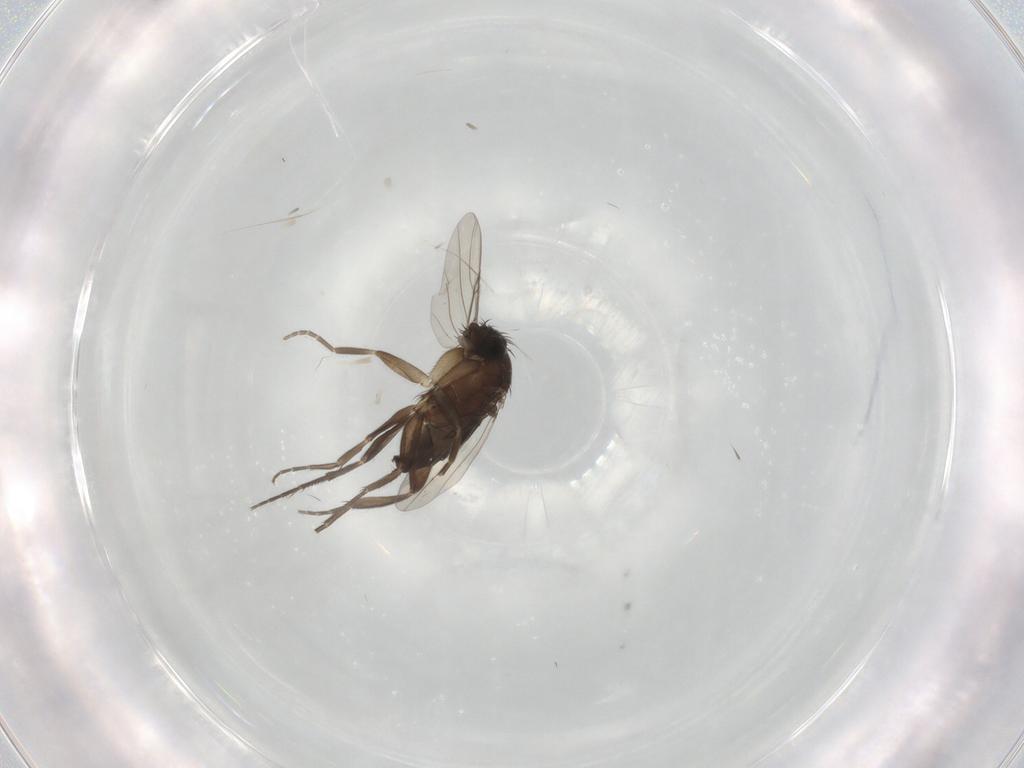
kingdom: Animalia
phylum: Arthropoda
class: Insecta
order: Diptera
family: Phoridae
